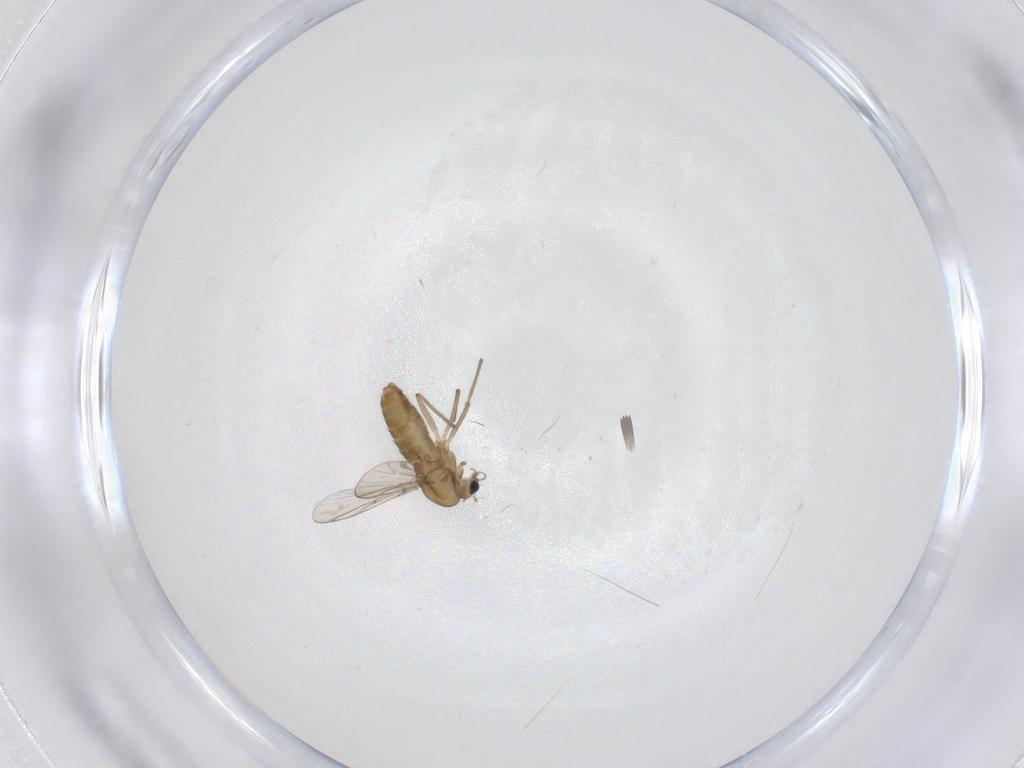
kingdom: Animalia
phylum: Arthropoda
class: Insecta
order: Diptera
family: Chironomidae
